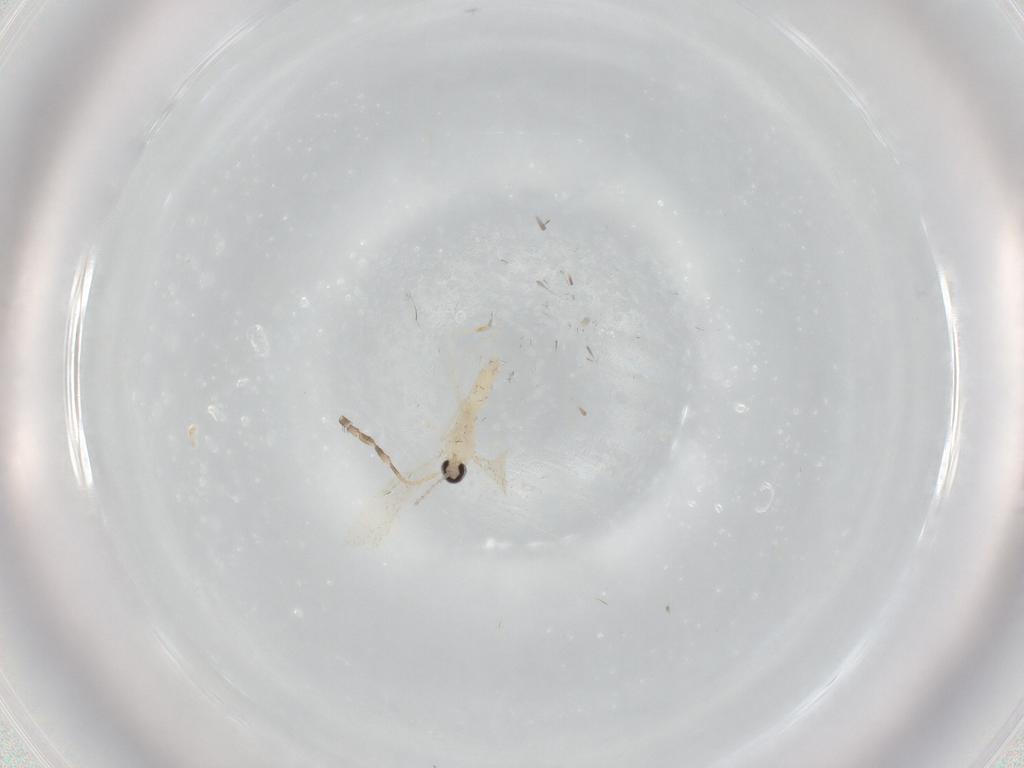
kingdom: Animalia
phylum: Arthropoda
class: Insecta
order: Diptera
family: Cecidomyiidae
